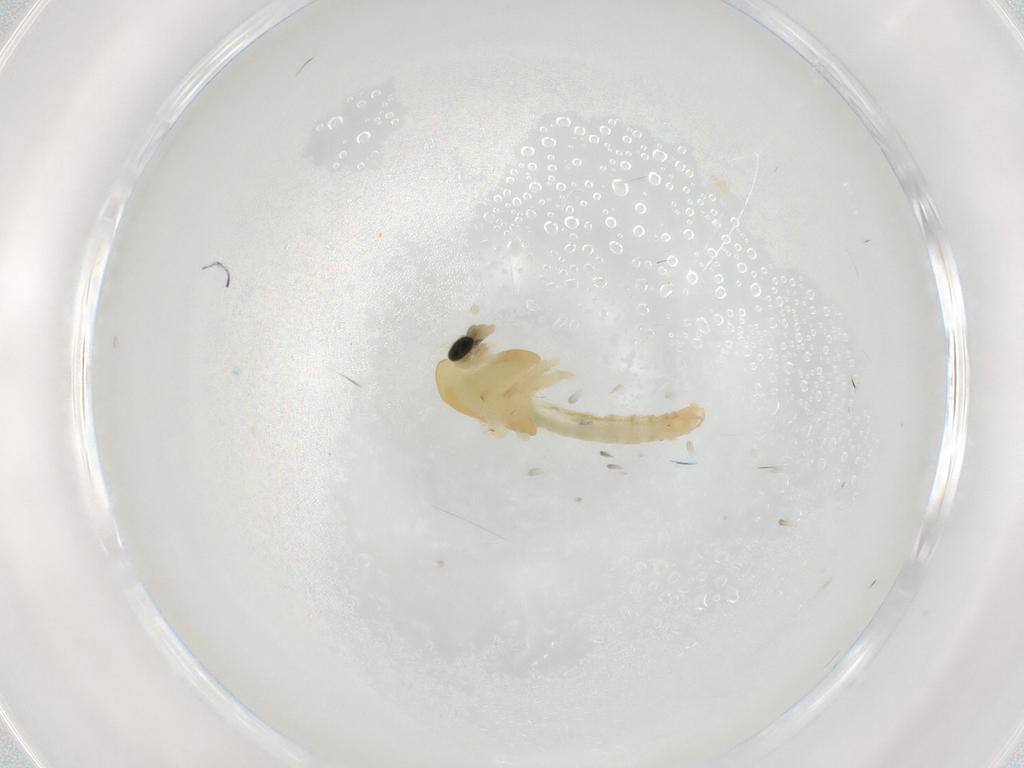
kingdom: Animalia
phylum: Arthropoda
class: Insecta
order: Diptera
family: Chironomidae
